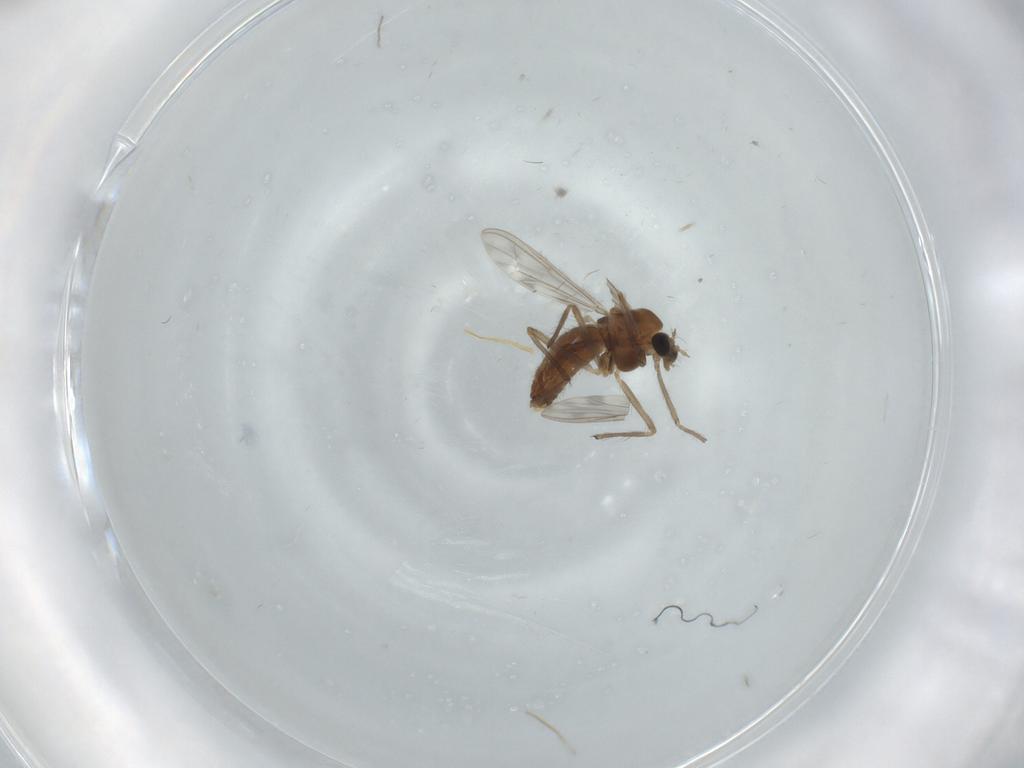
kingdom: Animalia
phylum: Arthropoda
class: Insecta
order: Diptera
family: Chironomidae
